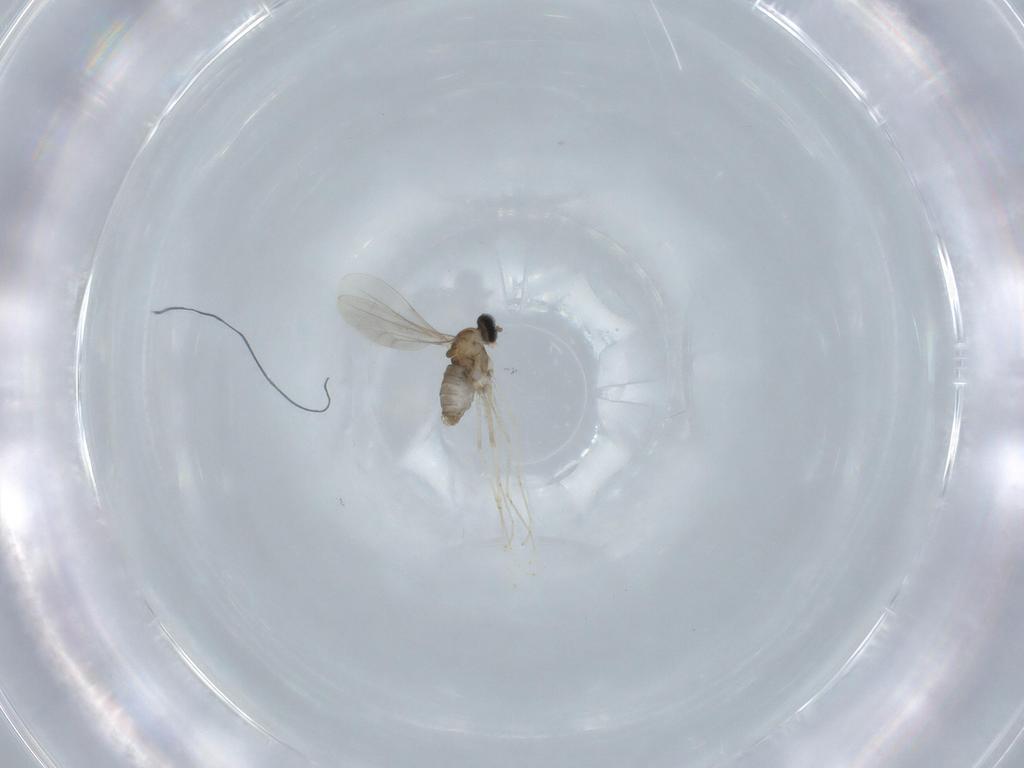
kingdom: Animalia
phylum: Arthropoda
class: Insecta
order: Diptera
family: Cecidomyiidae
